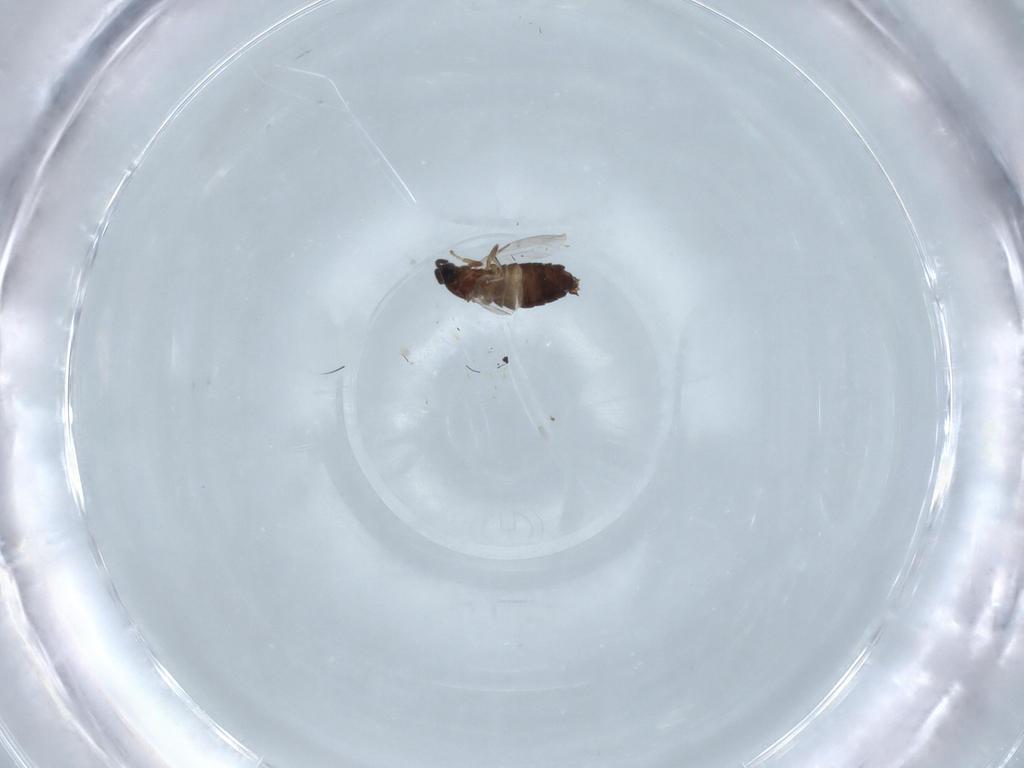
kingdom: Animalia
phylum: Arthropoda
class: Insecta
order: Diptera
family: Scatopsidae
